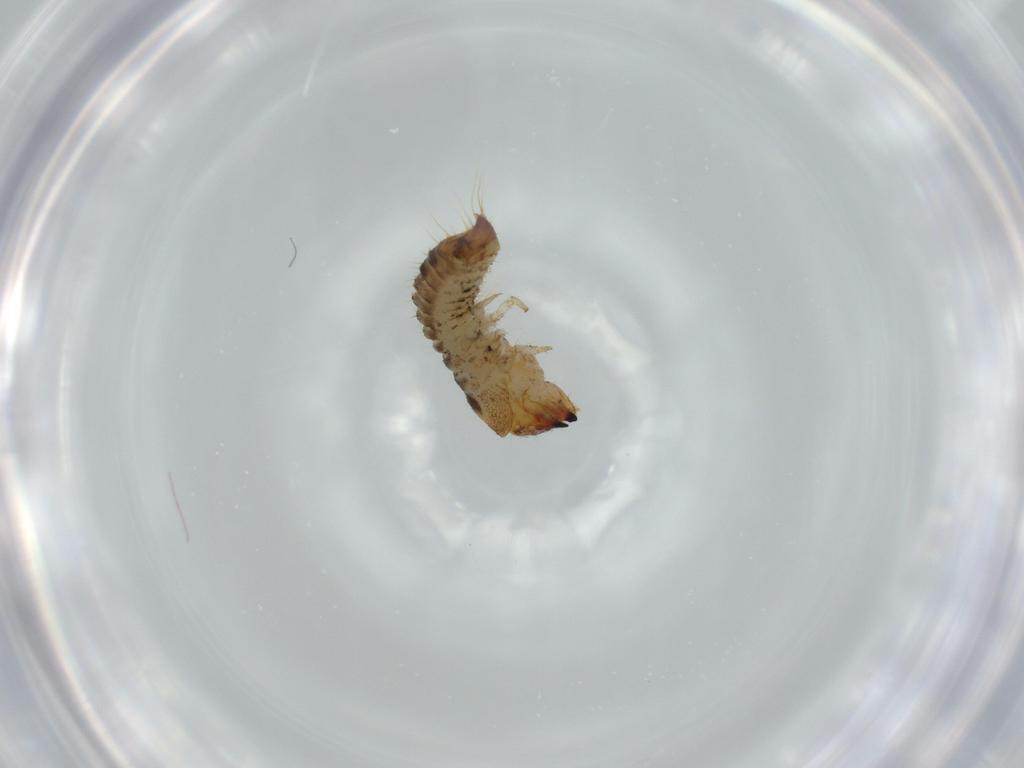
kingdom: Animalia
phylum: Arthropoda
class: Insecta
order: Coleoptera
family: Lymexylidae
